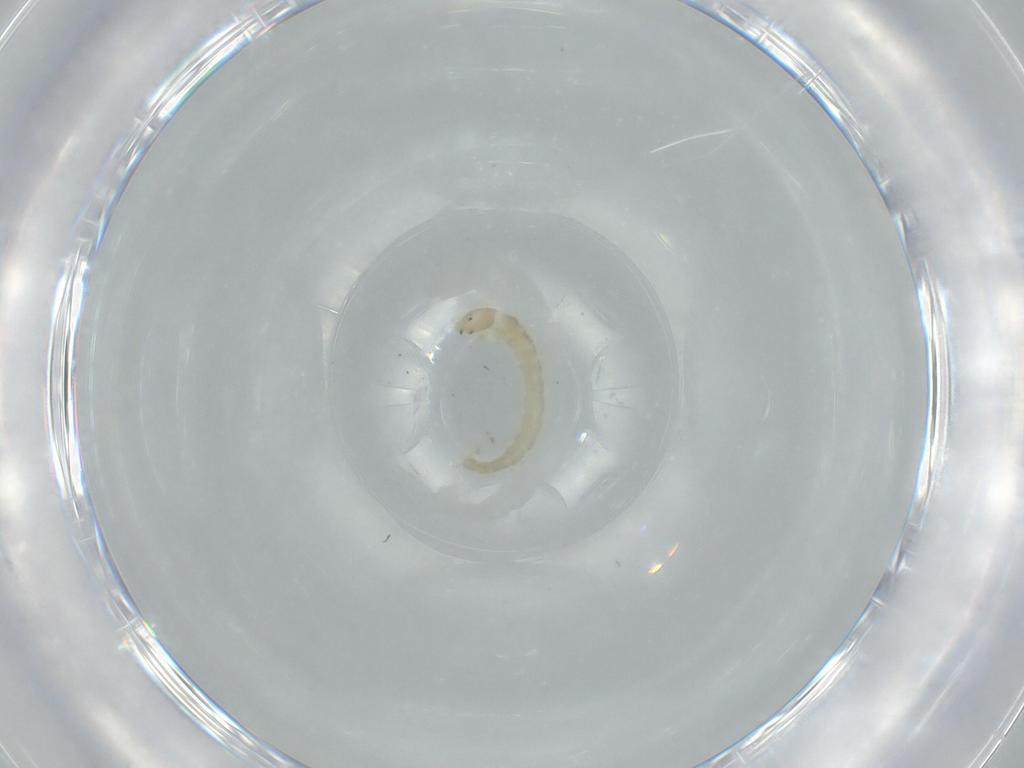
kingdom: Animalia
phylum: Arthropoda
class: Insecta
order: Diptera
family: Chironomidae
